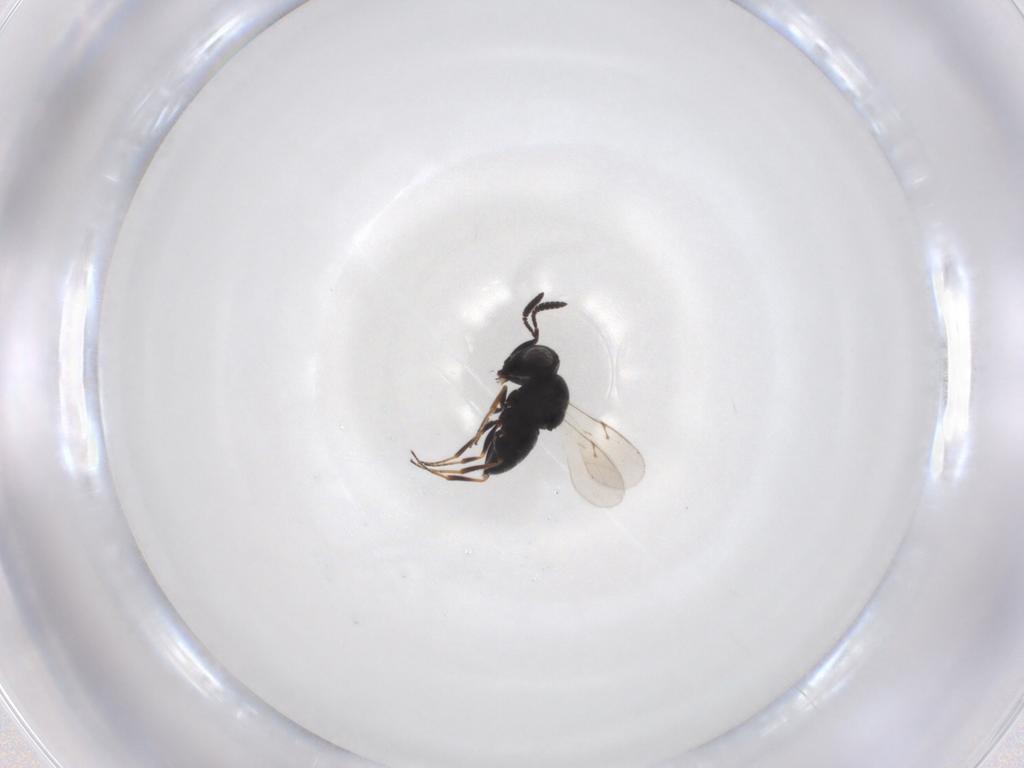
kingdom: Animalia
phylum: Arthropoda
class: Insecta
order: Hymenoptera
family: Scelionidae
